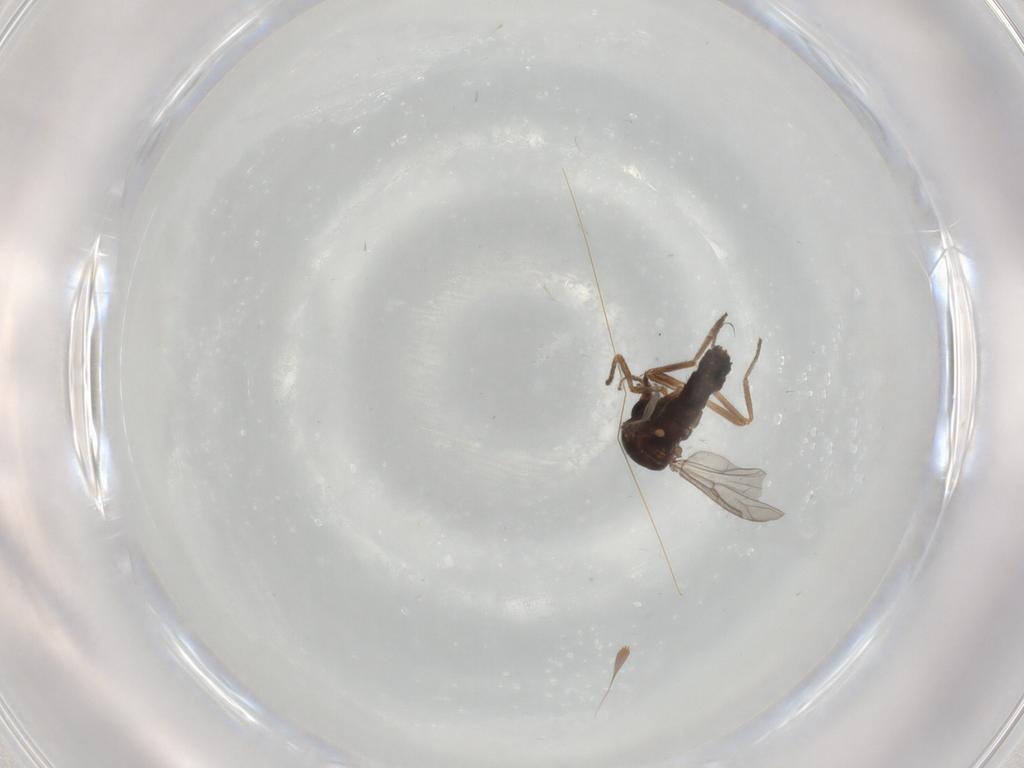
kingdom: Animalia
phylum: Arthropoda
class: Insecta
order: Diptera
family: Ceratopogonidae
